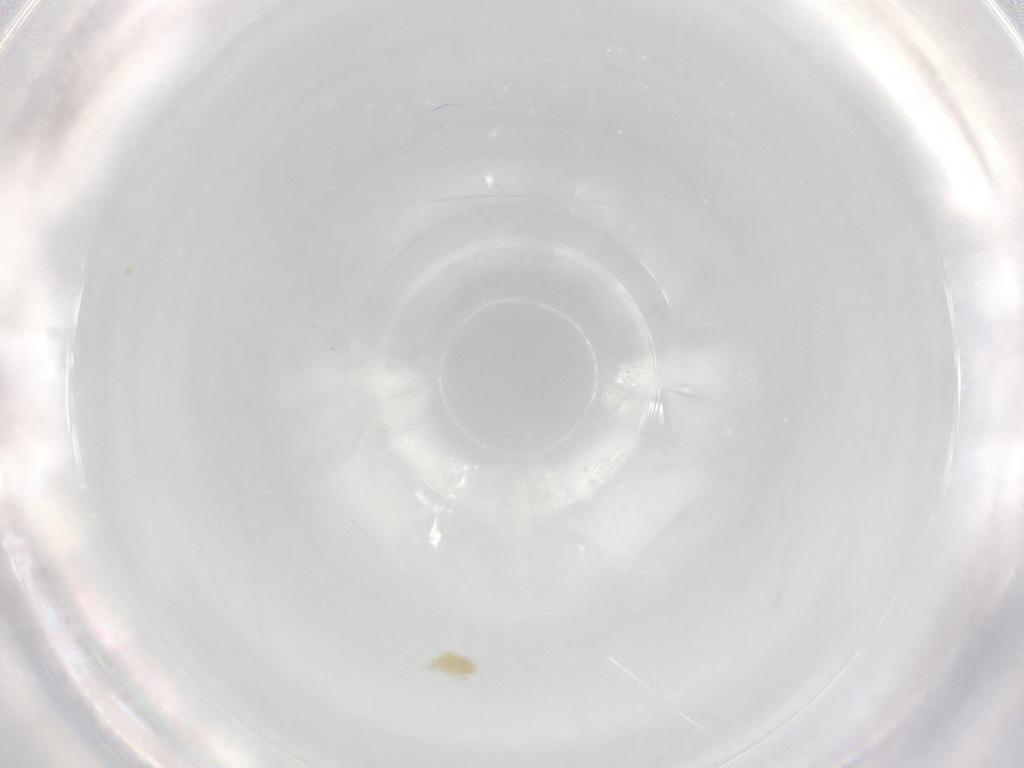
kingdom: Animalia
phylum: Arthropoda
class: Arachnida
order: Trombidiformes
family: Eupodidae
